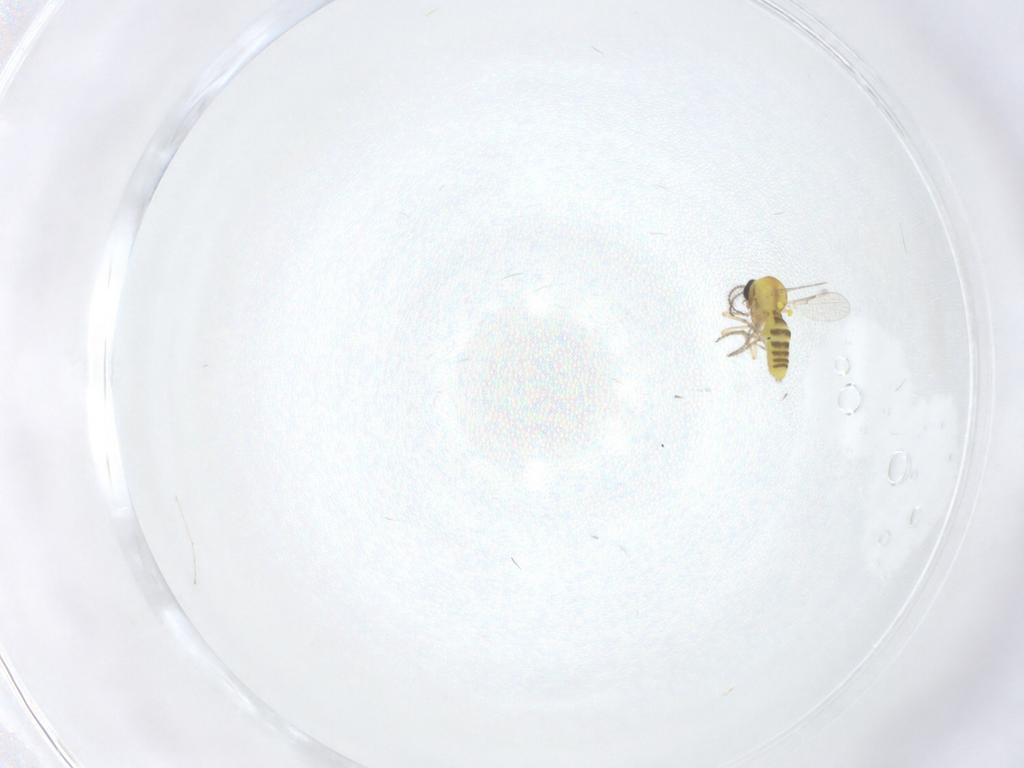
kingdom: Animalia
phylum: Arthropoda
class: Insecta
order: Diptera
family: Ceratopogonidae
